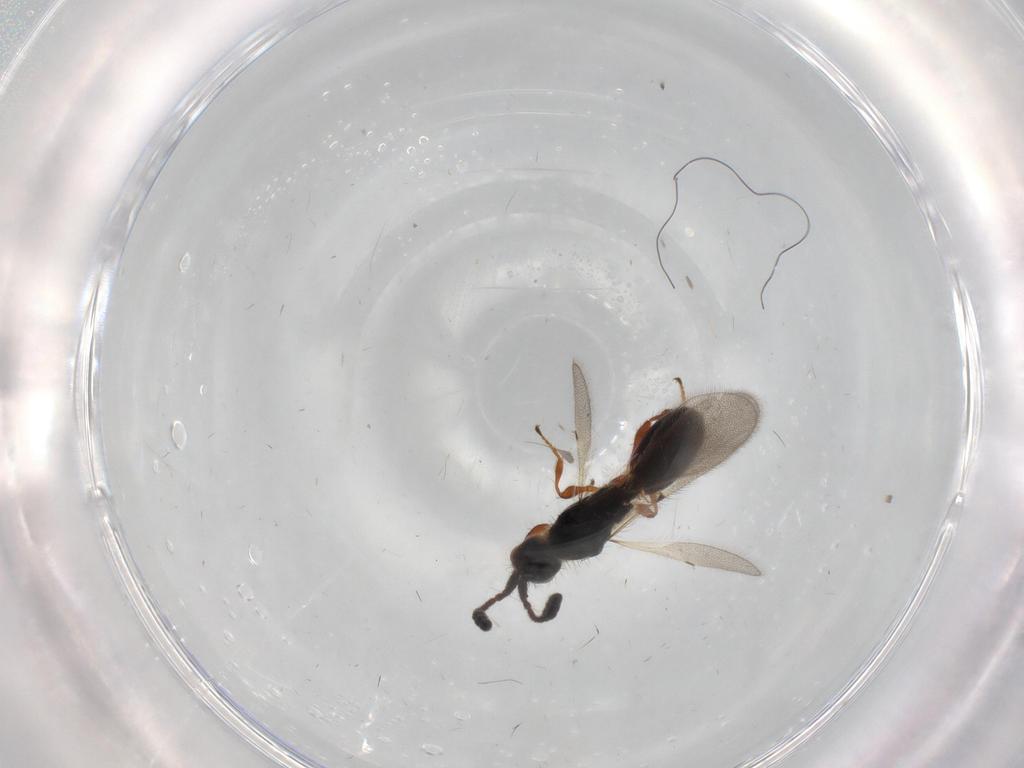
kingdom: Animalia
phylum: Arthropoda
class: Insecta
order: Hymenoptera
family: Diapriidae
